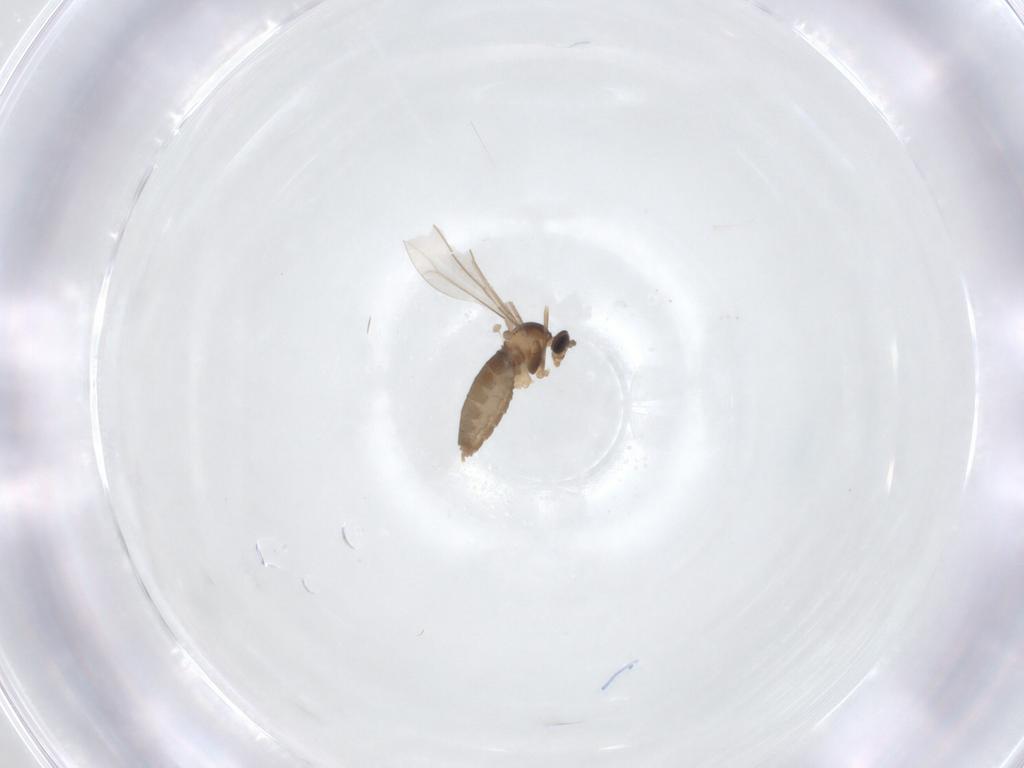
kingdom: Animalia
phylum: Arthropoda
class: Insecta
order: Diptera
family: Cecidomyiidae
